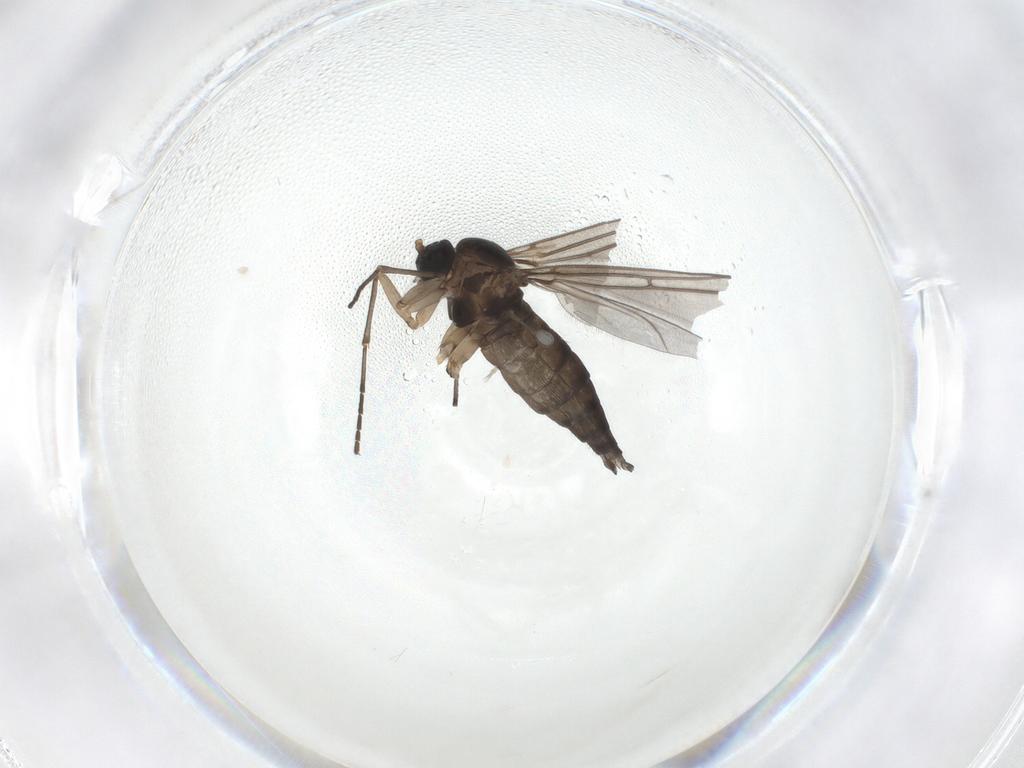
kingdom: Animalia
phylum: Arthropoda
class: Insecta
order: Diptera
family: Sciaridae
